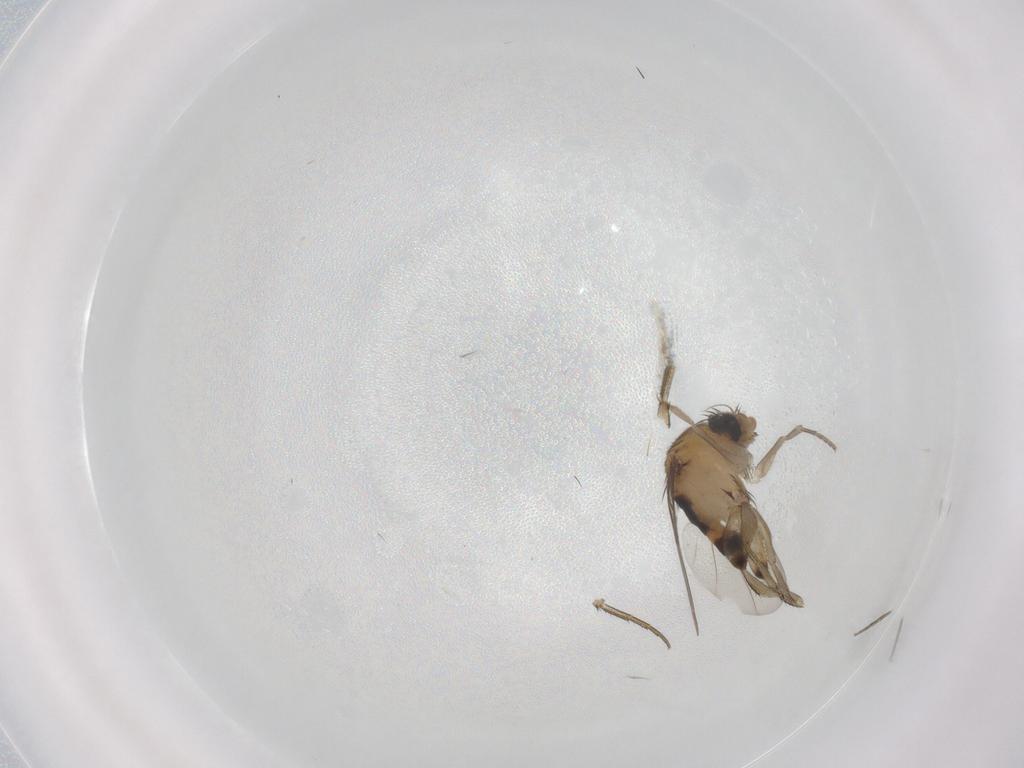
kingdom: Animalia
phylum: Arthropoda
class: Insecta
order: Diptera
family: Phoridae
